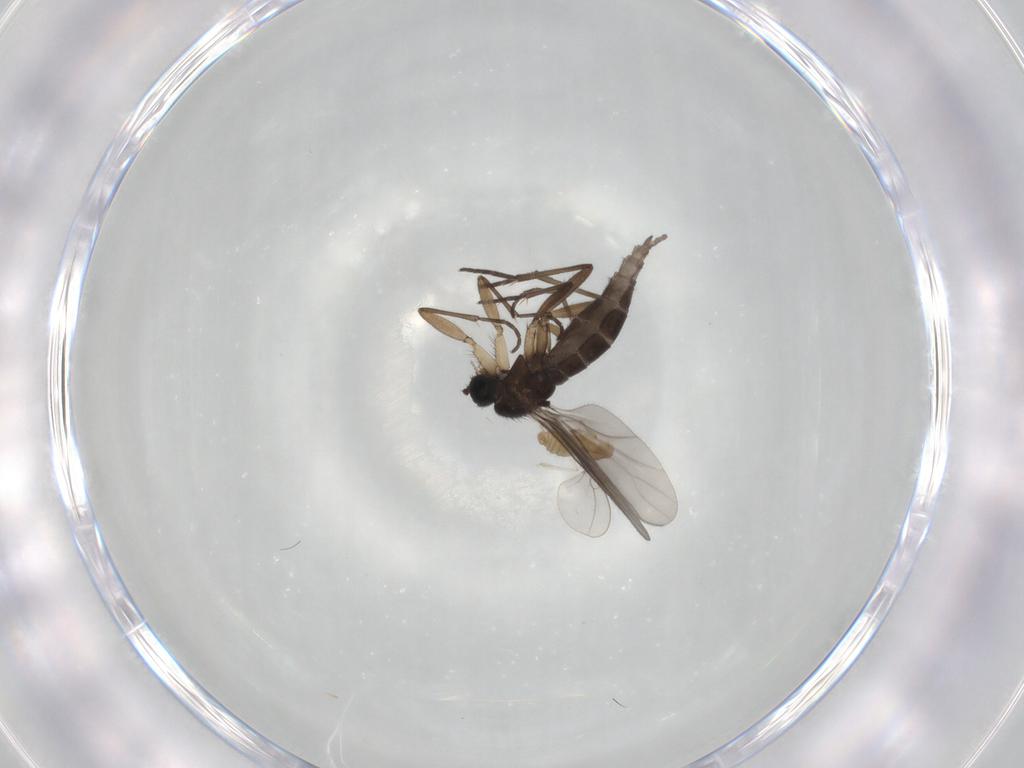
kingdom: Animalia
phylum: Arthropoda
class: Insecta
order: Diptera
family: Sciaridae
